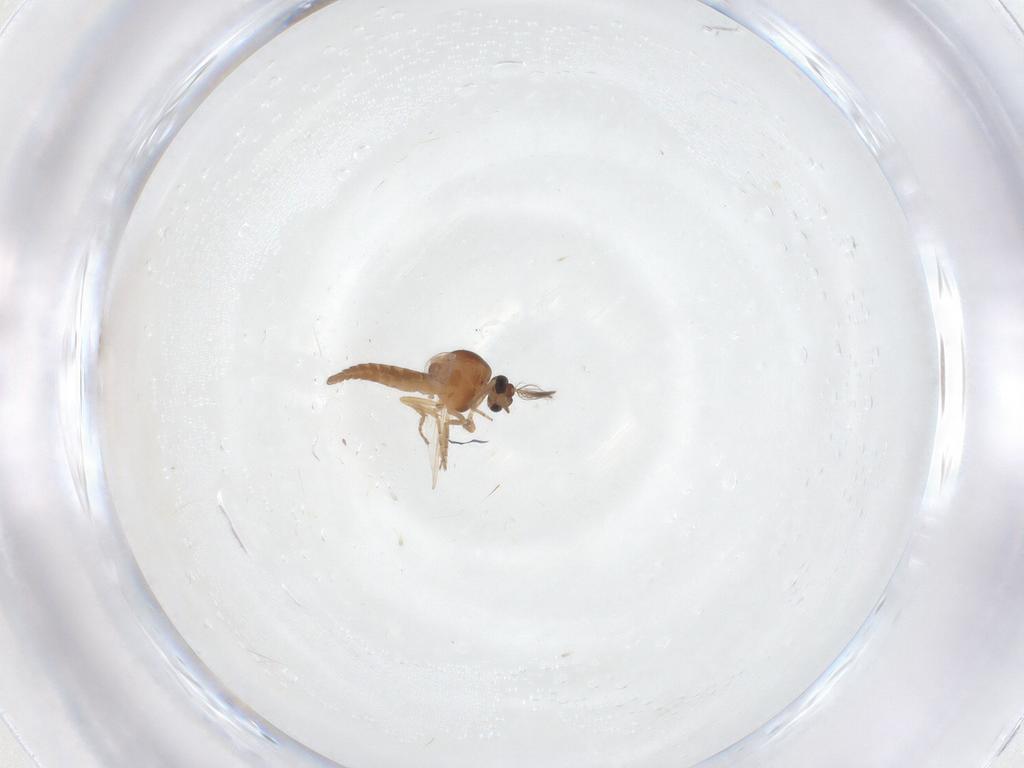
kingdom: Animalia
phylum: Arthropoda
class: Insecta
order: Diptera
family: Ceratopogonidae
